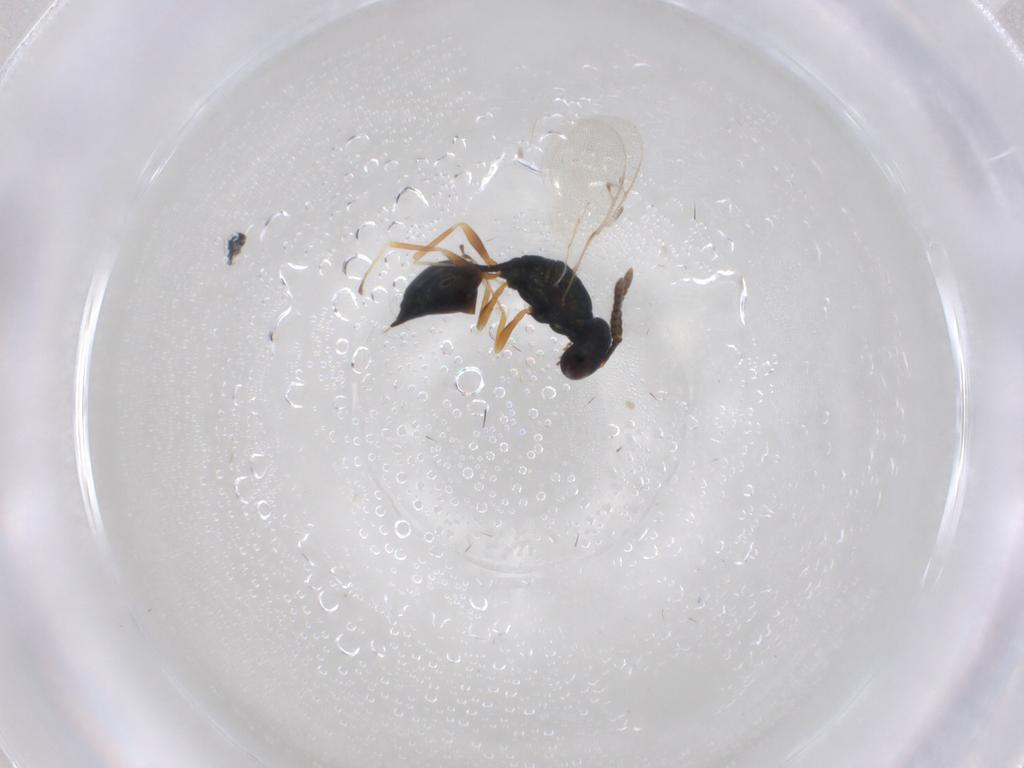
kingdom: Animalia
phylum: Arthropoda
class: Insecta
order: Hymenoptera
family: Pteromalidae
